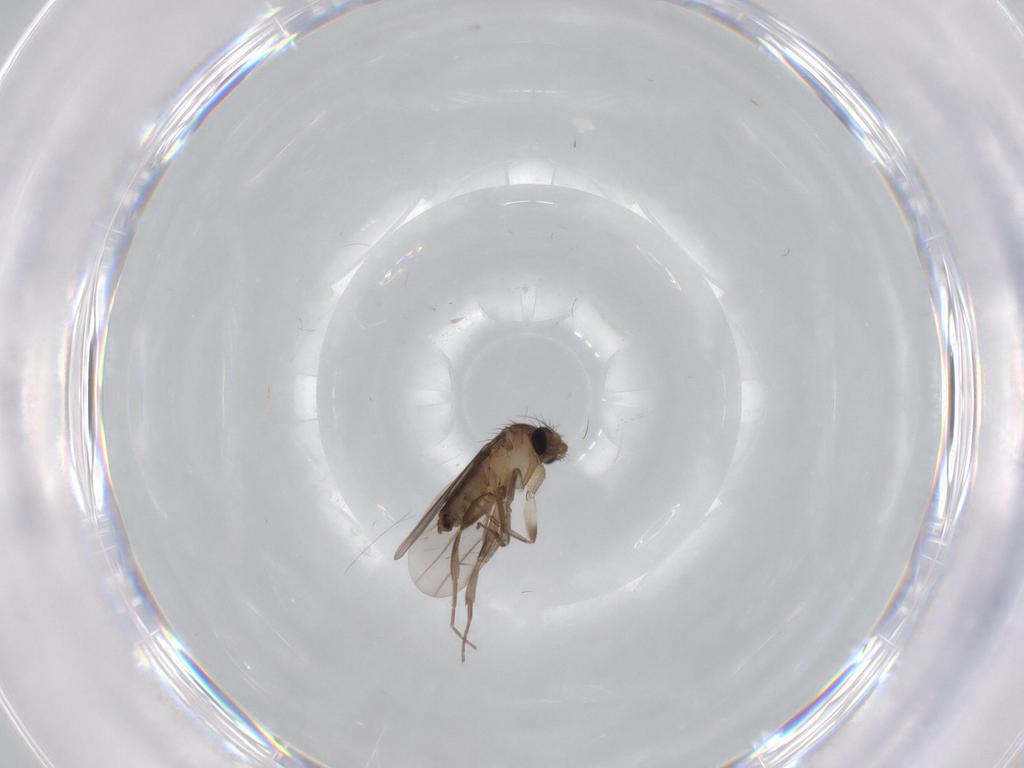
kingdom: Animalia
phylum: Arthropoda
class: Insecta
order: Diptera
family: Limoniidae
